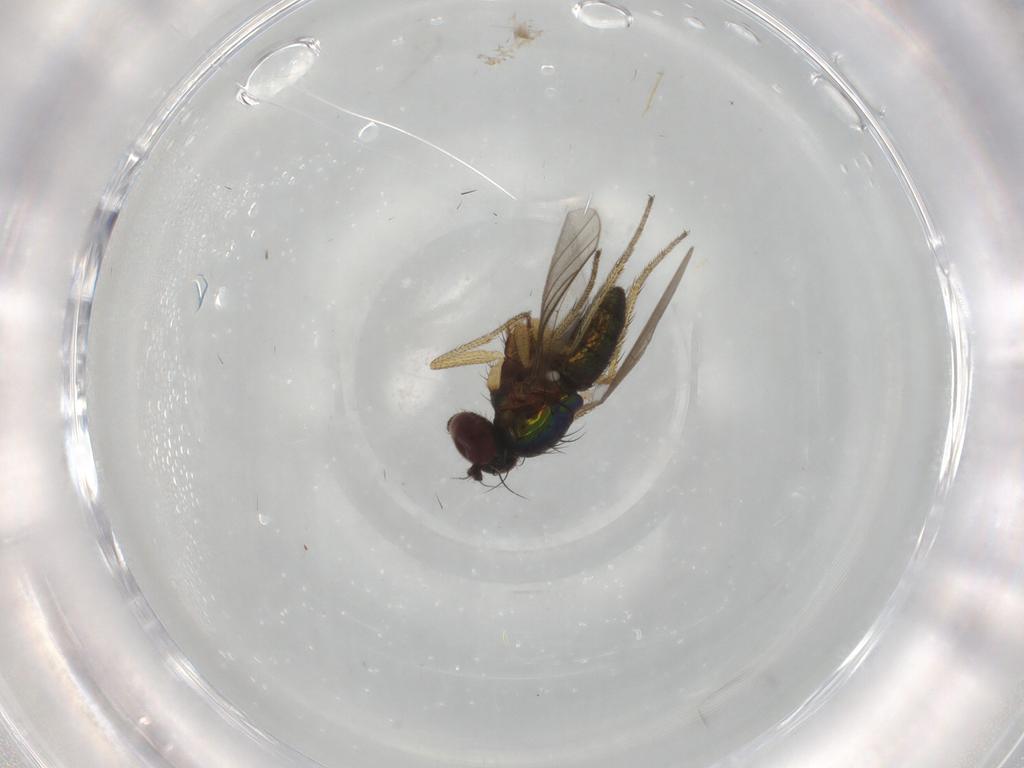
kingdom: Animalia
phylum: Arthropoda
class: Insecta
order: Diptera
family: Chironomidae
